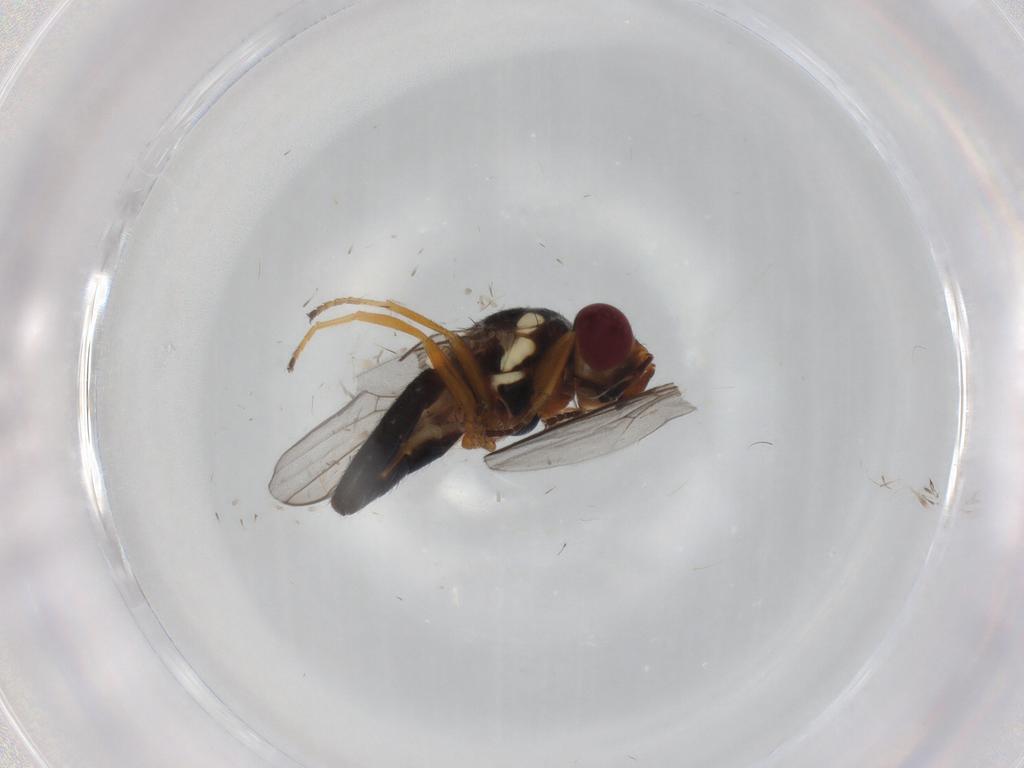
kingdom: Animalia
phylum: Arthropoda
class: Insecta
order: Diptera
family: Chloropidae
